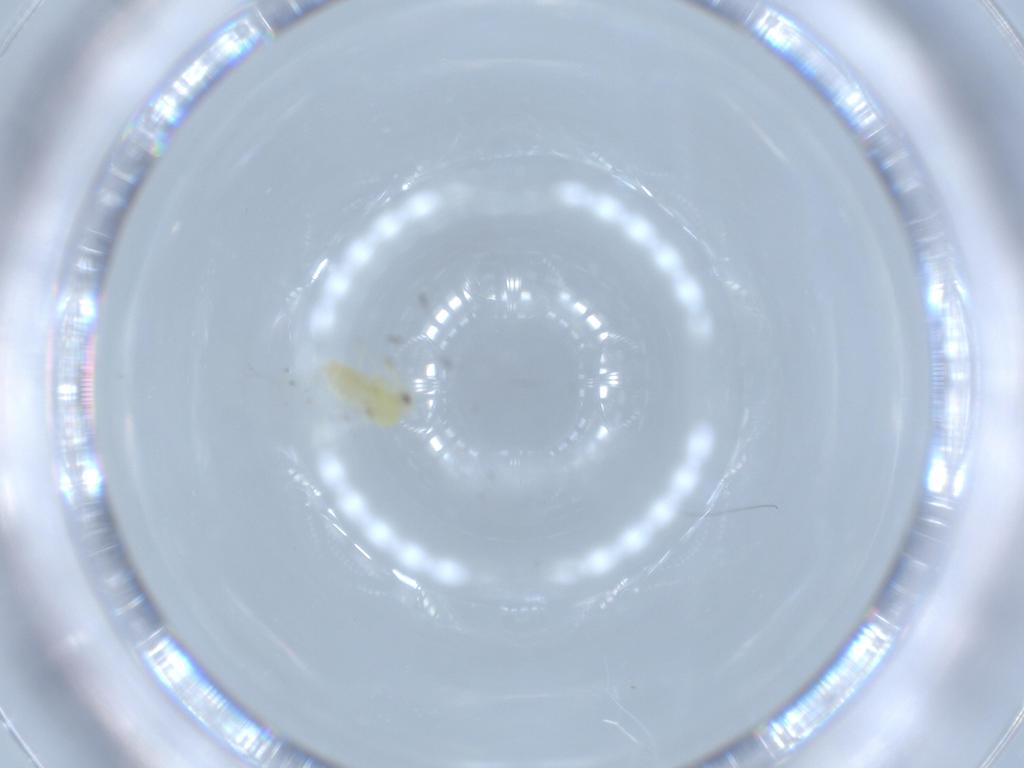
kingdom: Animalia
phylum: Arthropoda
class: Insecta
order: Hemiptera
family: Aleyrodidae
